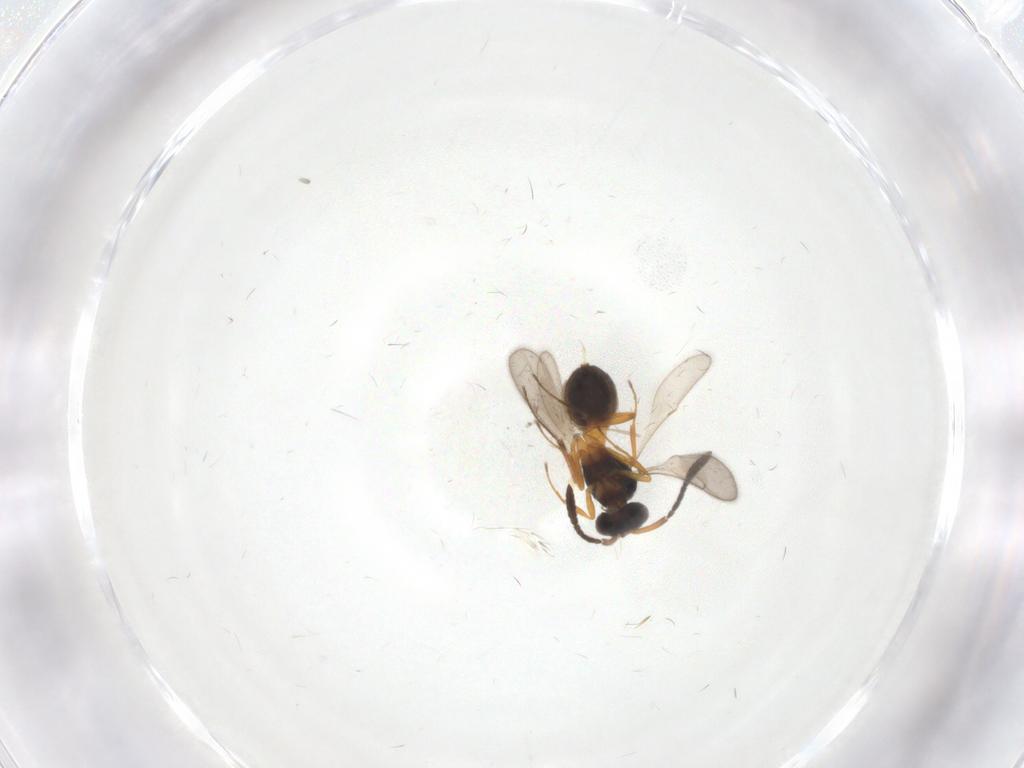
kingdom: Animalia
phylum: Arthropoda
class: Insecta
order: Hymenoptera
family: Scelionidae
